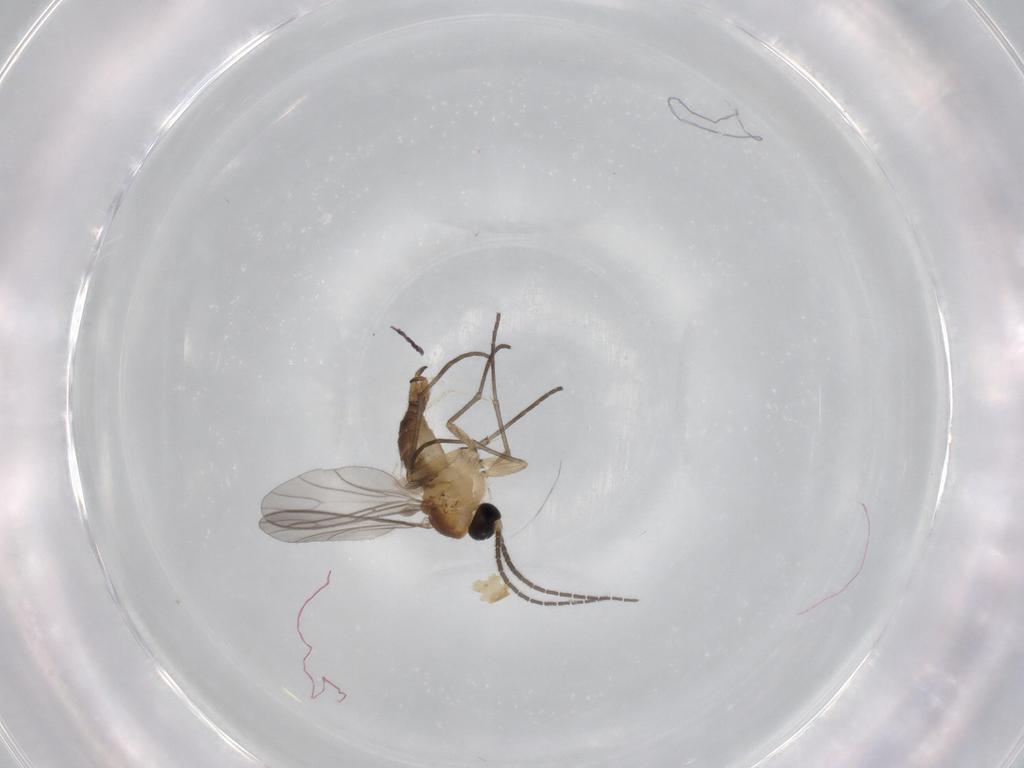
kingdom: Animalia
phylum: Arthropoda
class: Insecta
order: Diptera
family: Sciaridae
